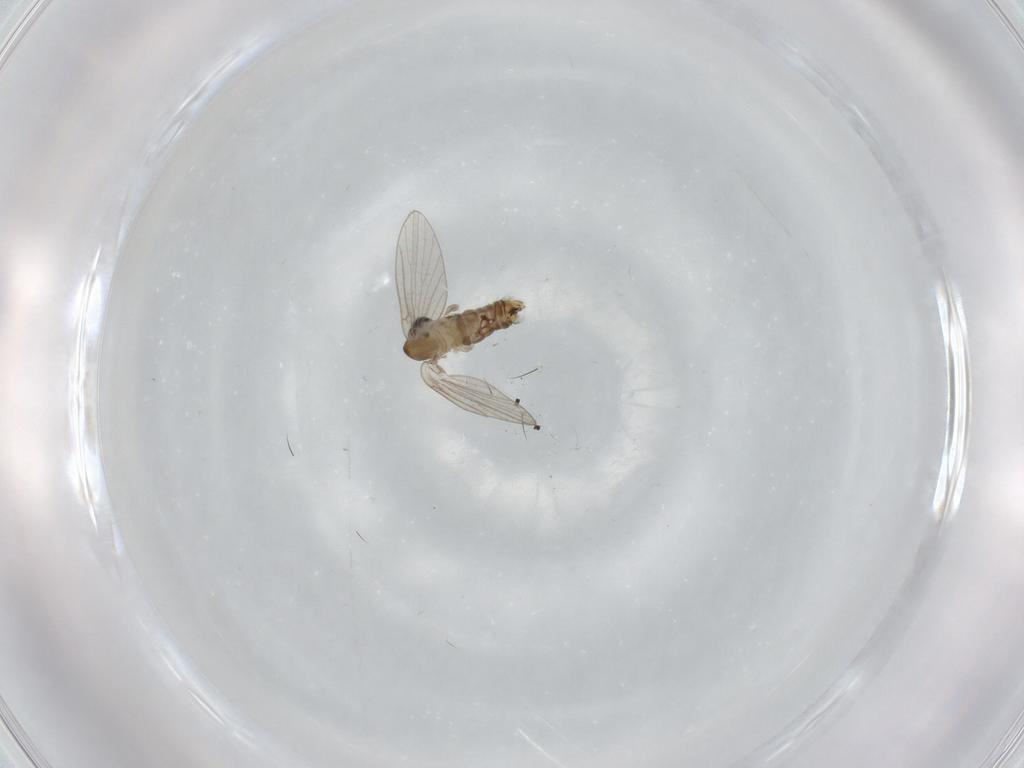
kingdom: Animalia
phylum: Arthropoda
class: Insecta
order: Diptera
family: Psychodidae
